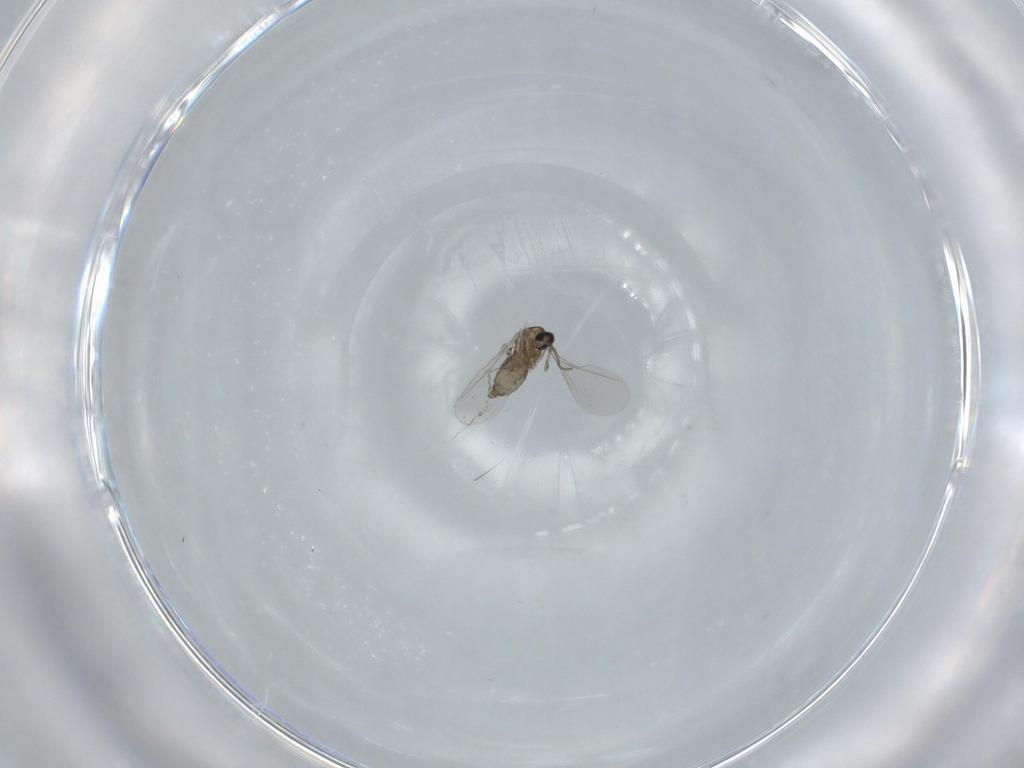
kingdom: Animalia
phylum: Arthropoda
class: Insecta
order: Diptera
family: Cecidomyiidae
